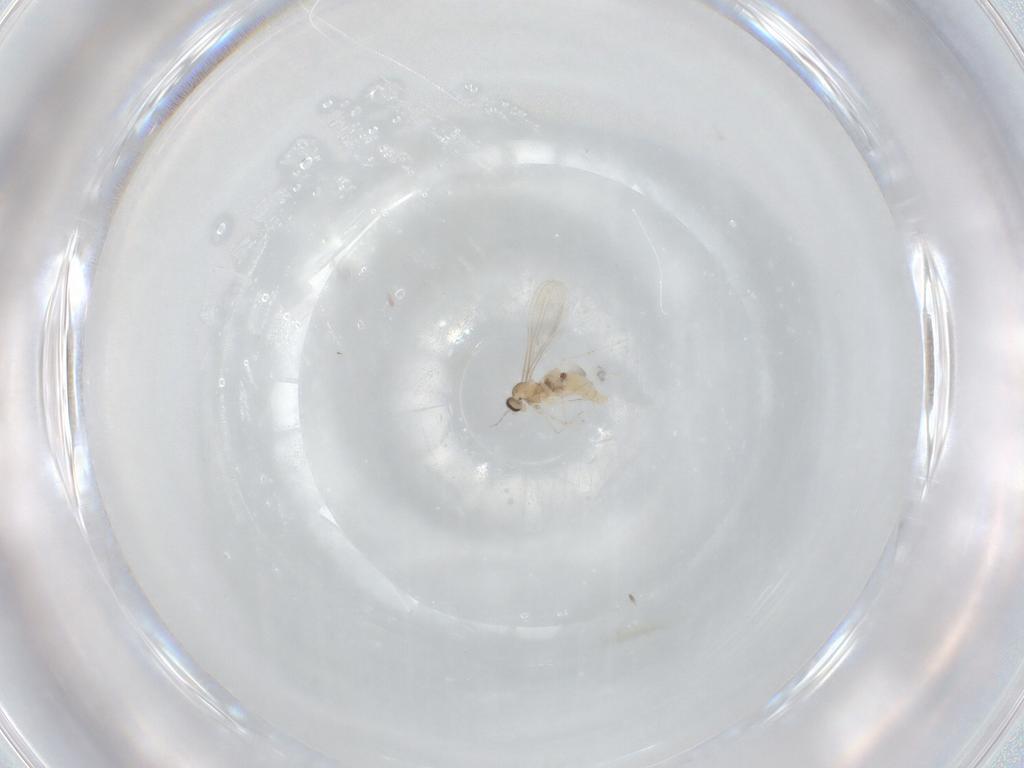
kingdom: Animalia
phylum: Arthropoda
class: Insecta
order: Diptera
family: Cecidomyiidae
